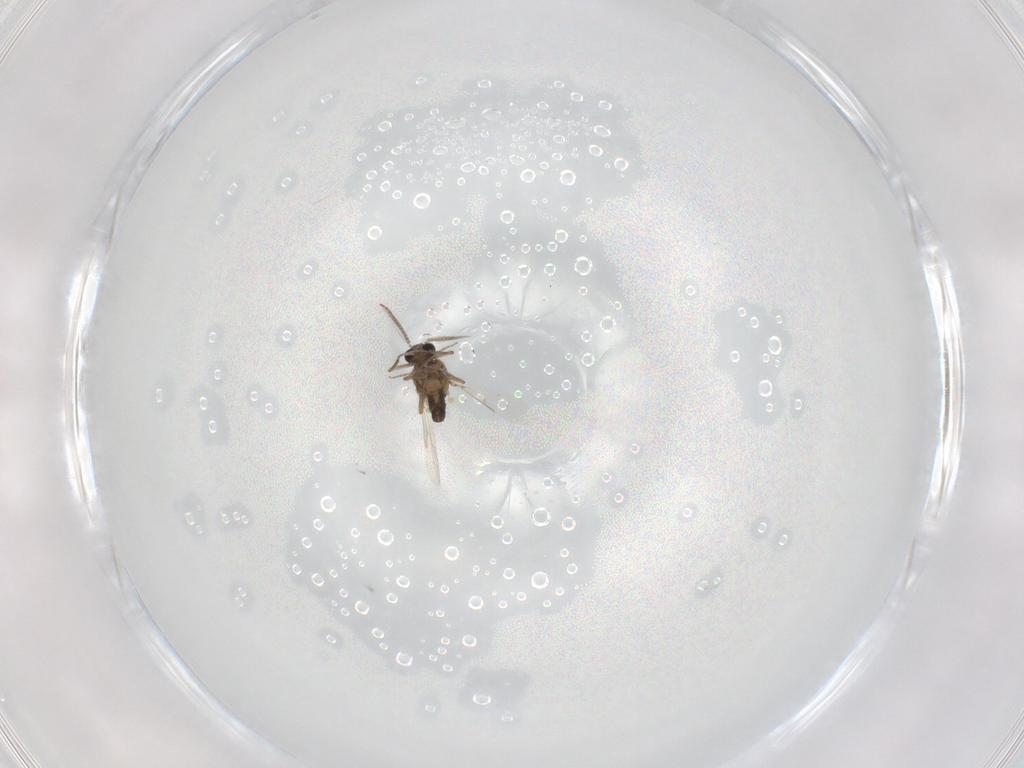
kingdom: Animalia
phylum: Arthropoda
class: Insecta
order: Diptera
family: Ceratopogonidae
